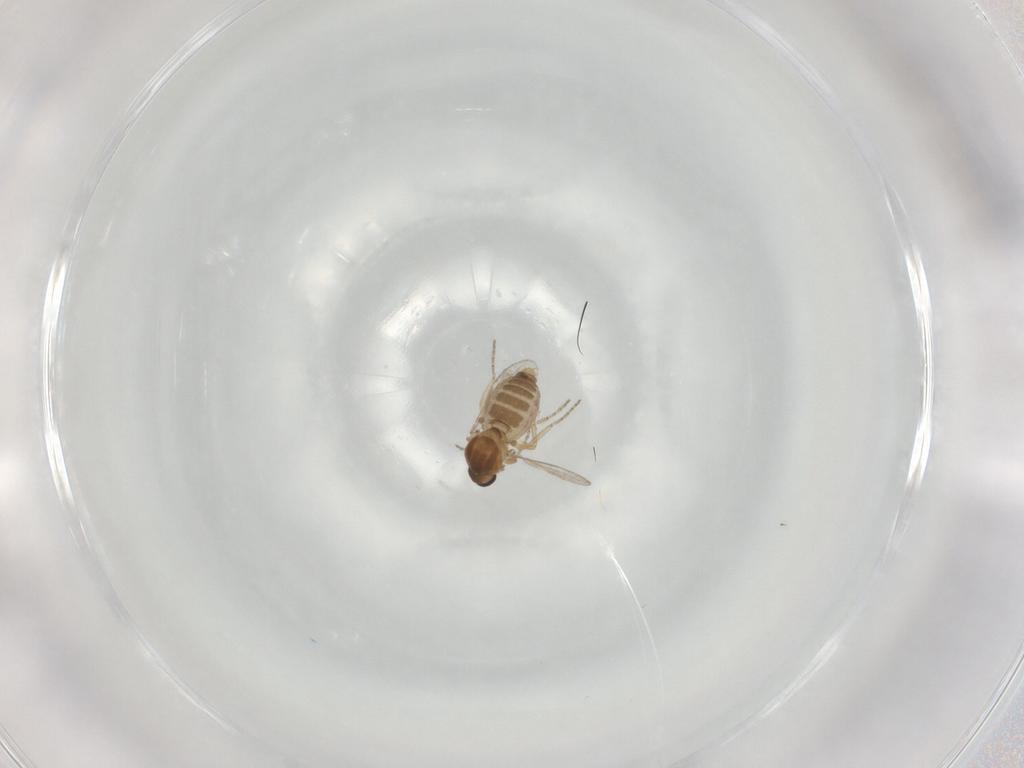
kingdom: Animalia
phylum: Arthropoda
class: Insecta
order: Diptera
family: Ceratopogonidae
